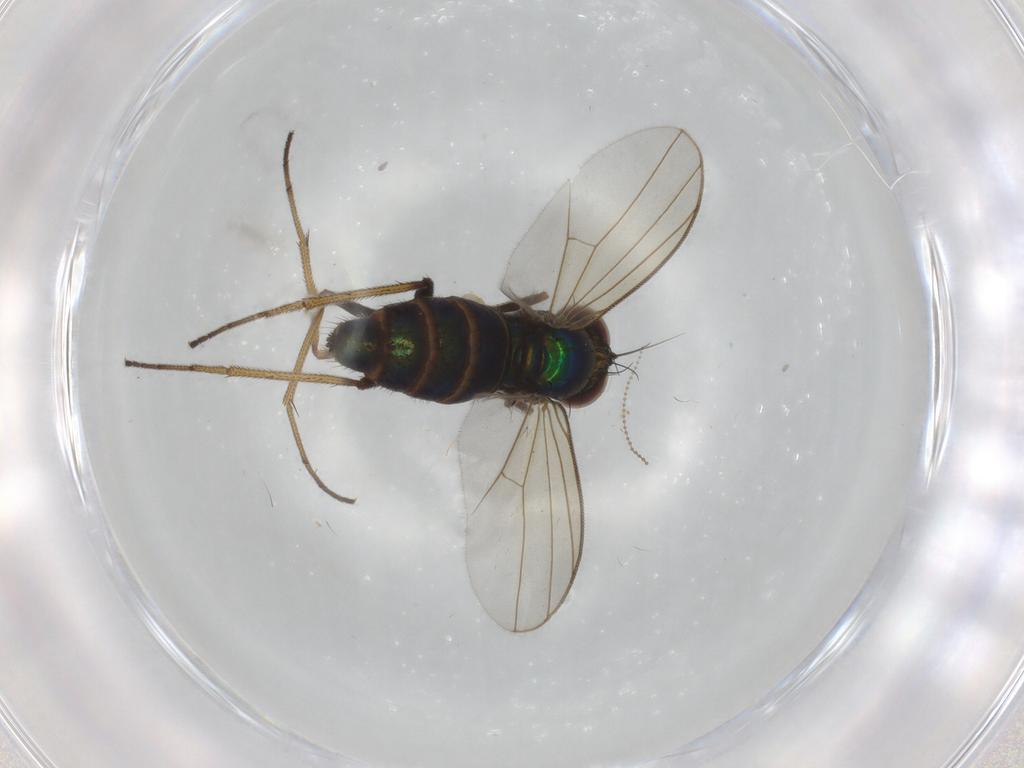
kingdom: Animalia
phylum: Arthropoda
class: Insecta
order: Diptera
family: Dolichopodidae
